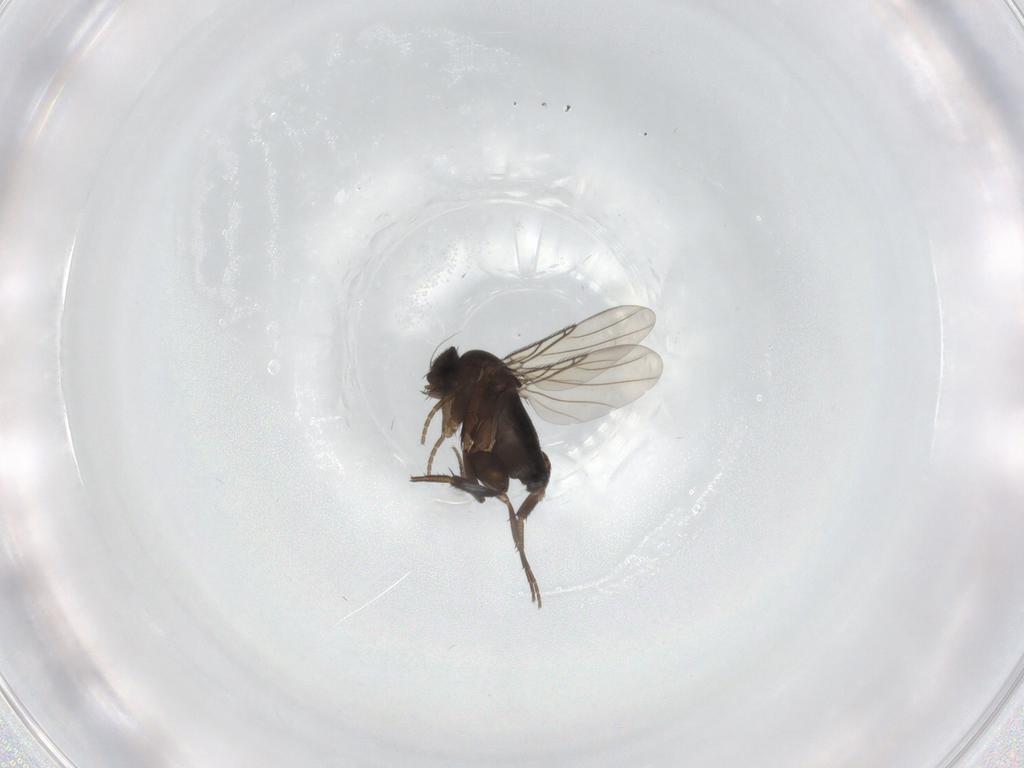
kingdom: Animalia
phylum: Arthropoda
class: Insecta
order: Diptera
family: Phoridae
